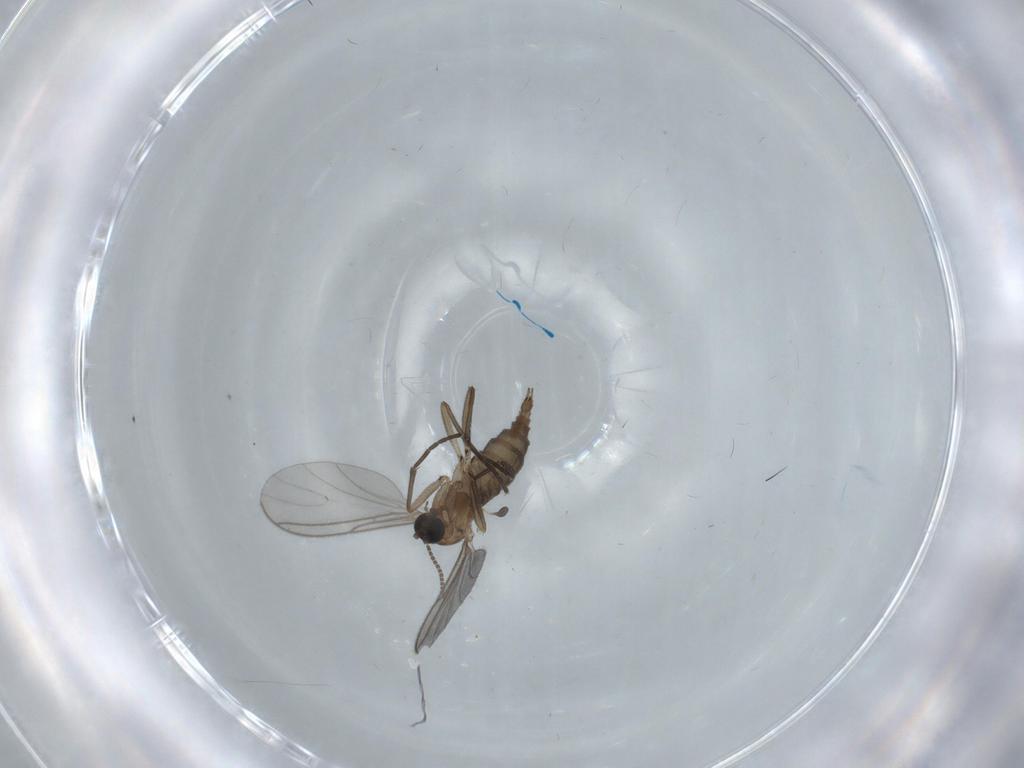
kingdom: Animalia
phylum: Arthropoda
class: Insecta
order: Diptera
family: Sciaridae
